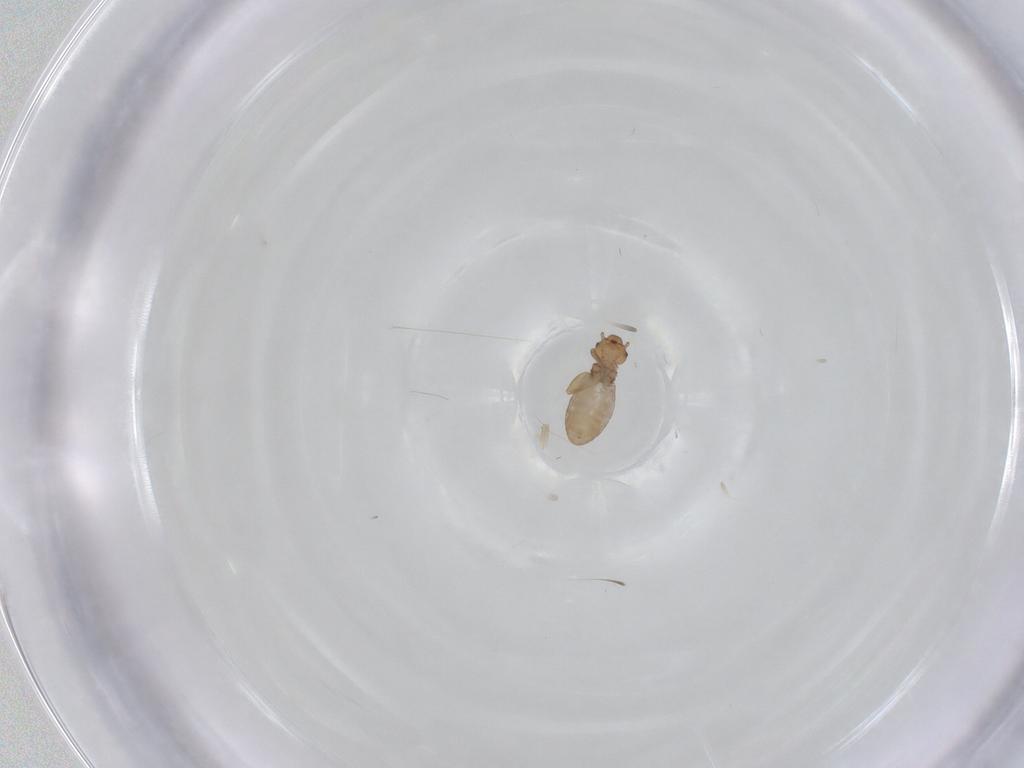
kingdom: Animalia
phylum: Arthropoda
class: Insecta
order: Psocodea
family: Liposcelididae
